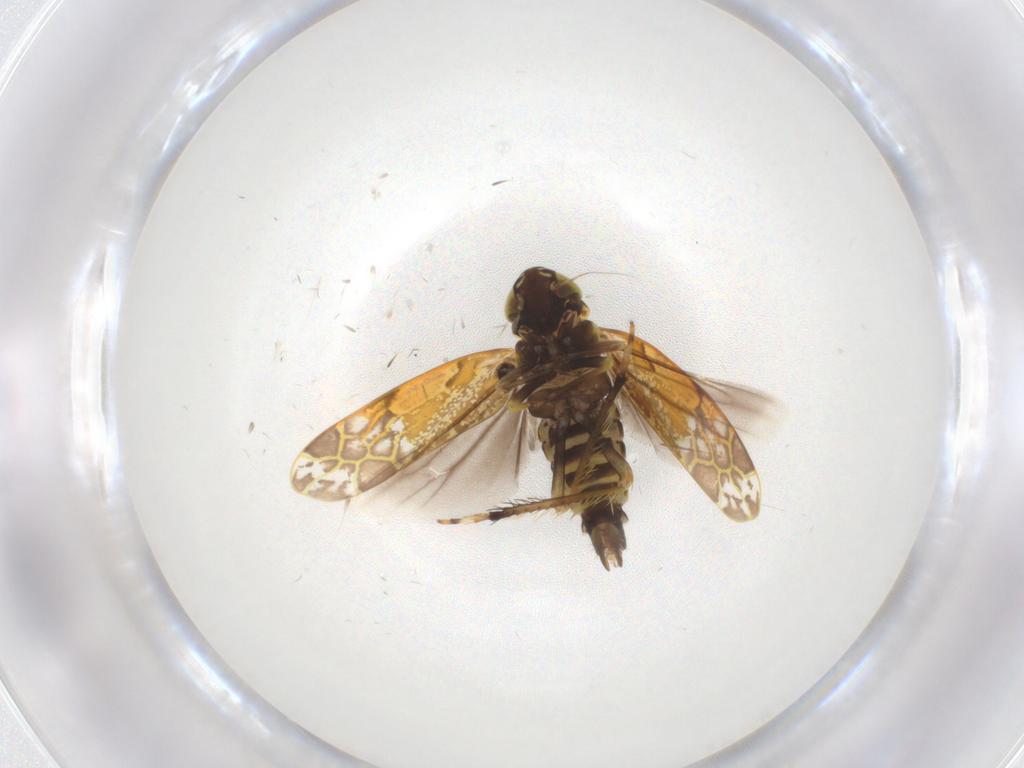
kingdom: Animalia
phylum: Arthropoda
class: Insecta
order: Hemiptera
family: Cicadellidae
